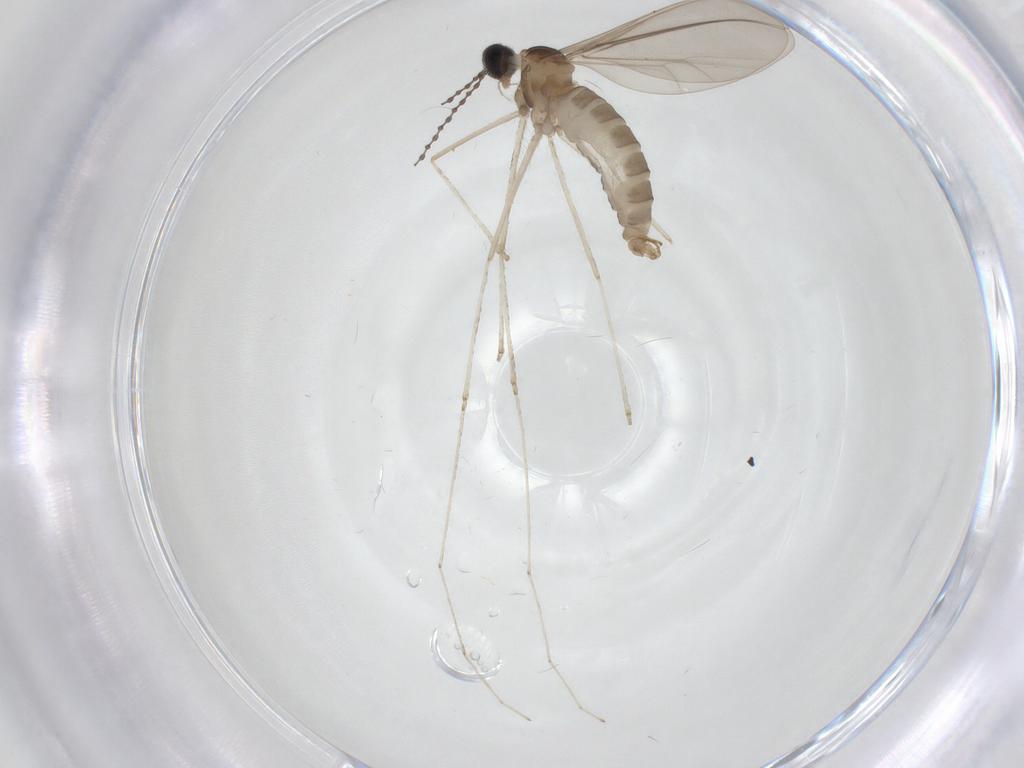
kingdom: Animalia
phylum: Arthropoda
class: Insecta
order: Diptera
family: Cecidomyiidae
